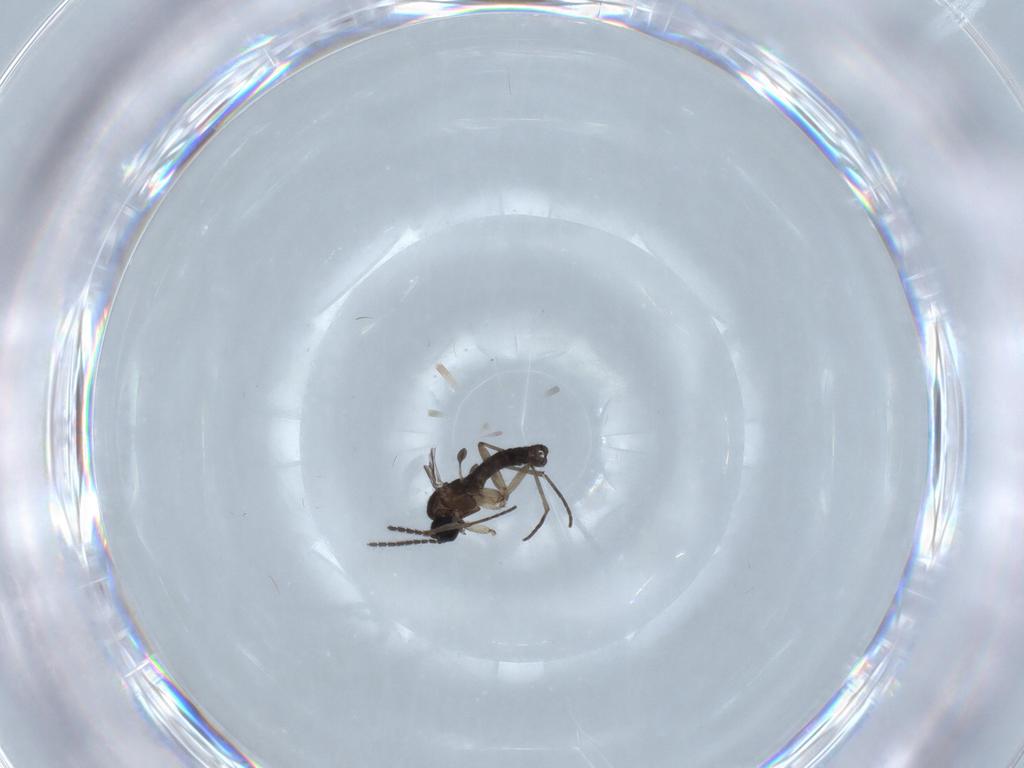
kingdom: Animalia
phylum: Arthropoda
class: Insecta
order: Diptera
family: Sciaridae
